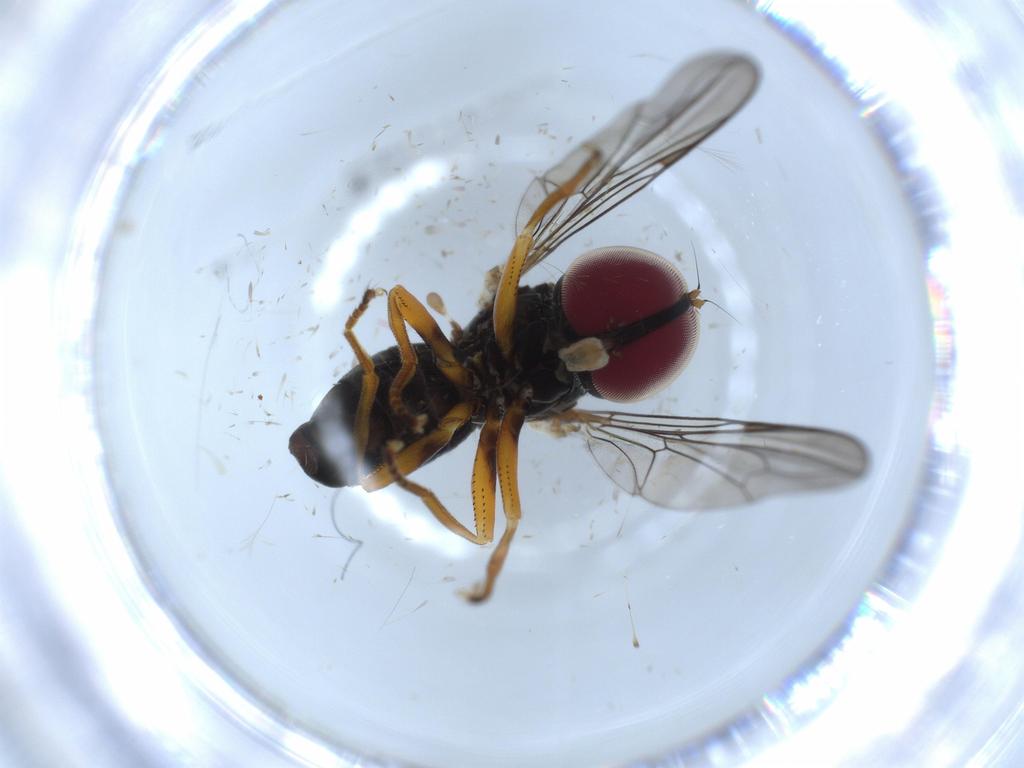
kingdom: Animalia
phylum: Arthropoda
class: Insecta
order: Diptera
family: Pipunculidae
